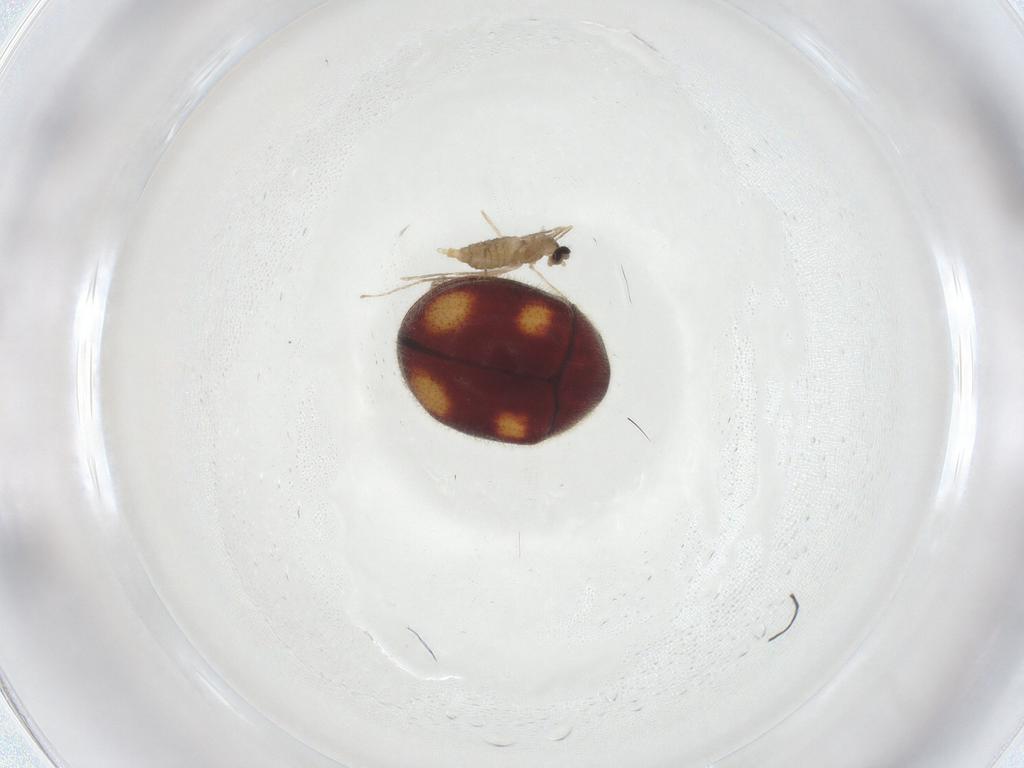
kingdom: Animalia
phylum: Arthropoda
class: Insecta
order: Diptera
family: Cecidomyiidae
